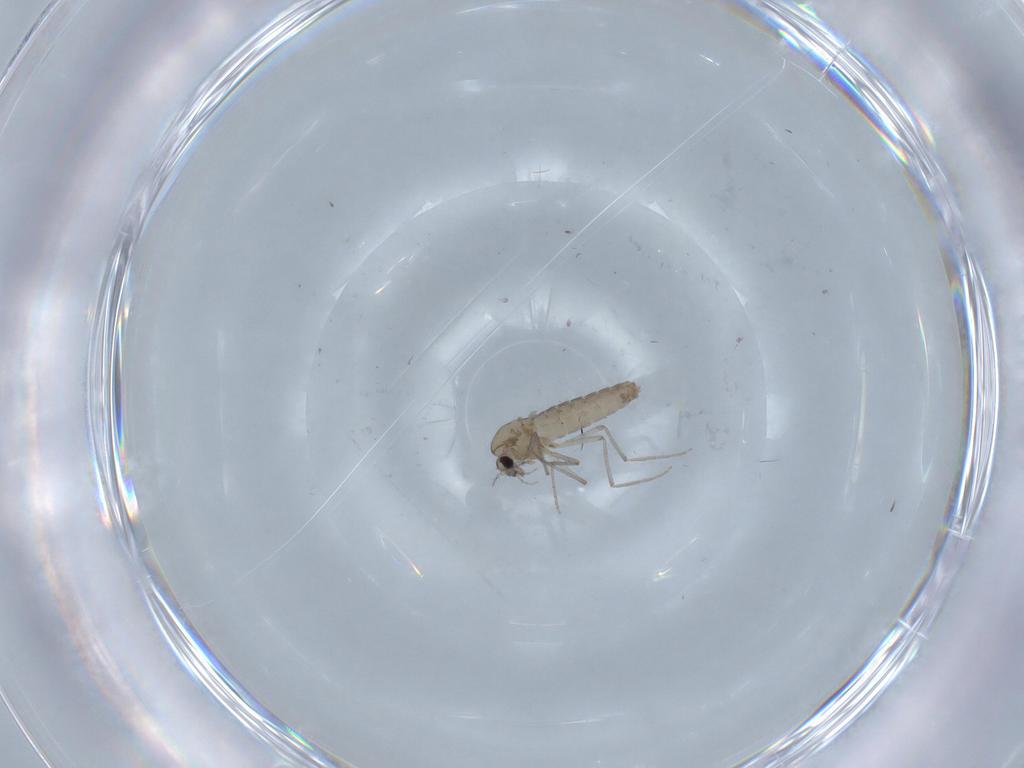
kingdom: Animalia
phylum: Arthropoda
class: Insecta
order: Diptera
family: Chironomidae
